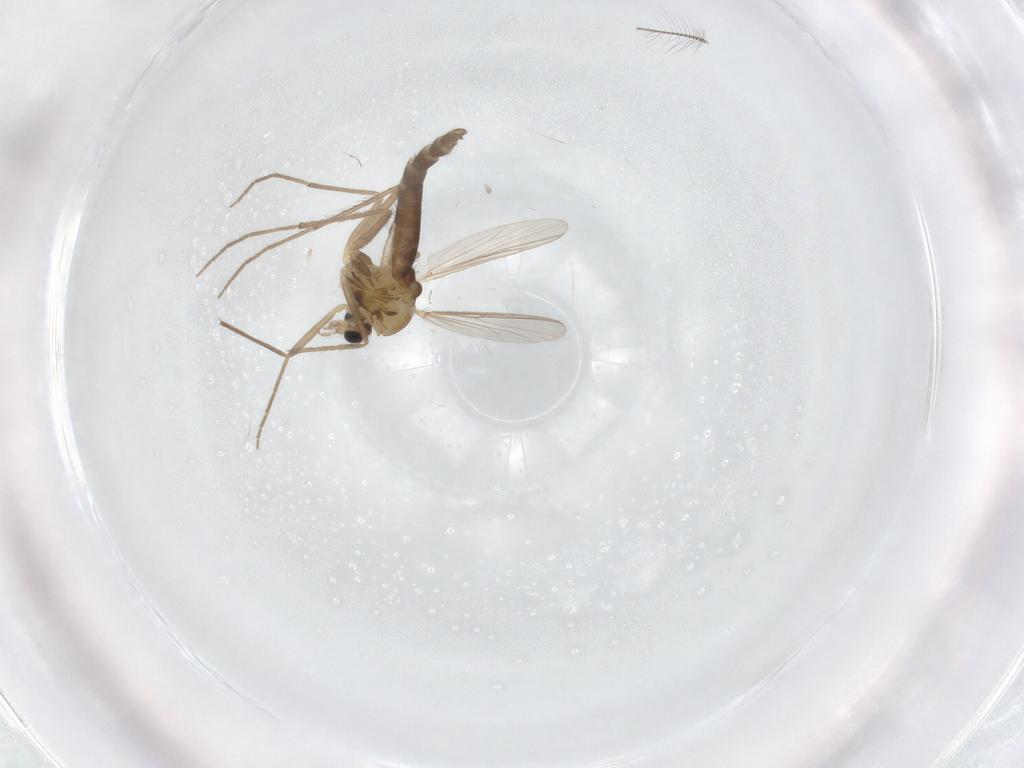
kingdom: Animalia
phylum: Arthropoda
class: Insecta
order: Diptera
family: Chironomidae
